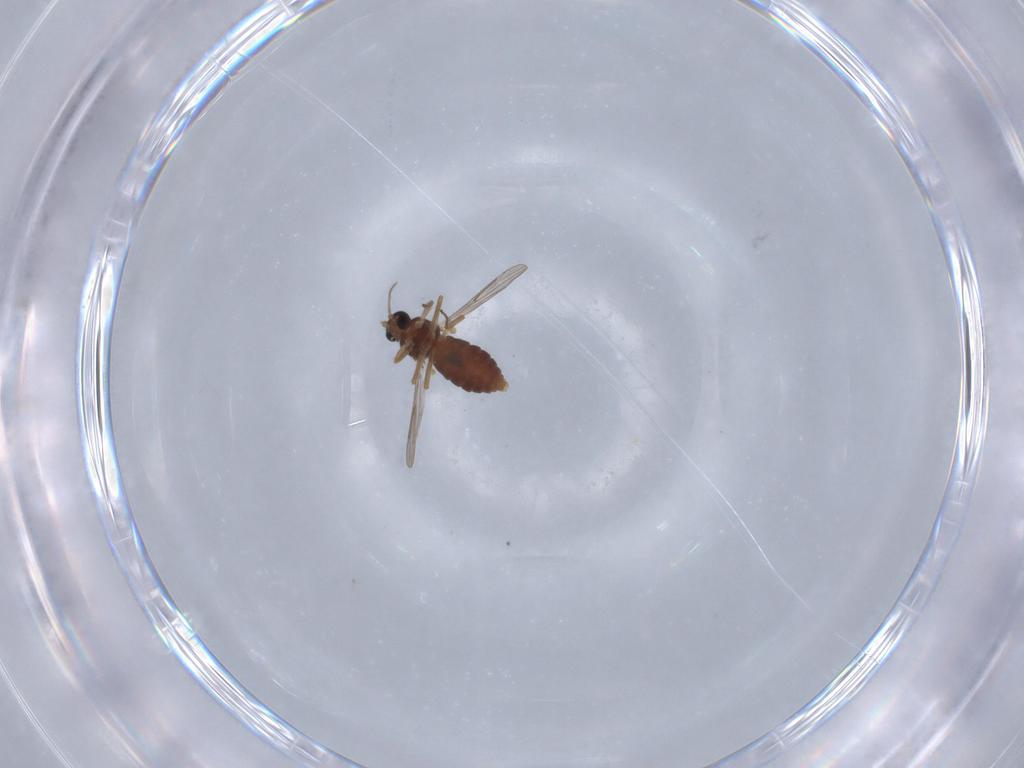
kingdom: Animalia
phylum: Arthropoda
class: Insecta
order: Diptera
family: Ceratopogonidae
